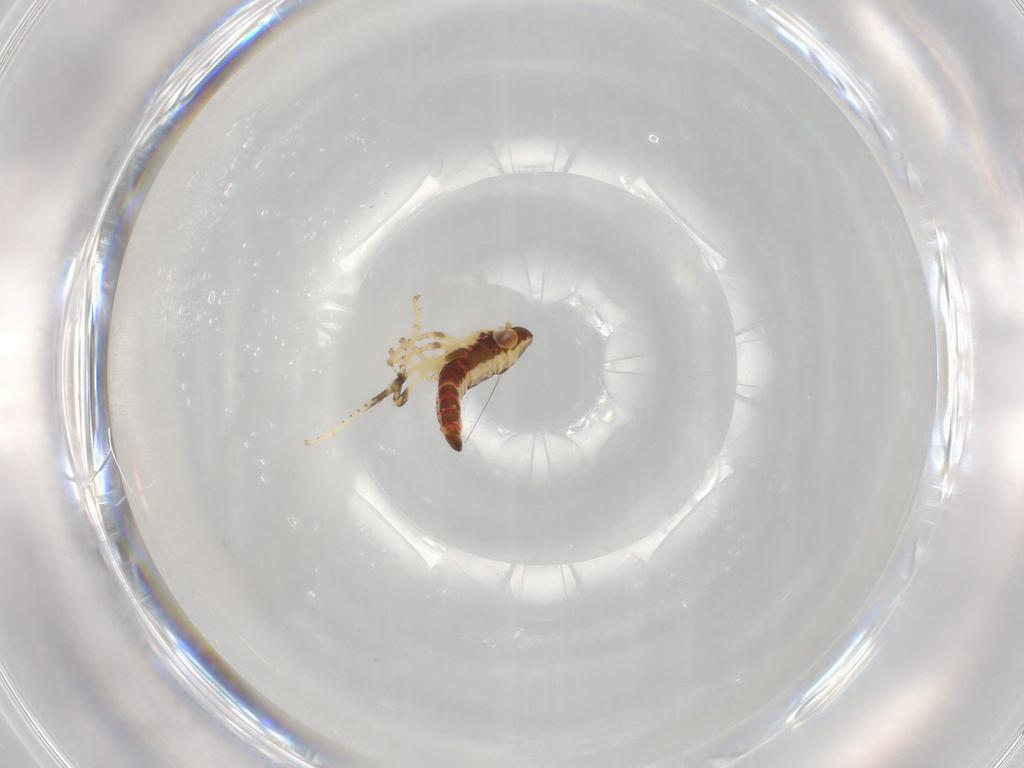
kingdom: Animalia
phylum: Arthropoda
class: Insecta
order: Hemiptera
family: Cicadellidae
